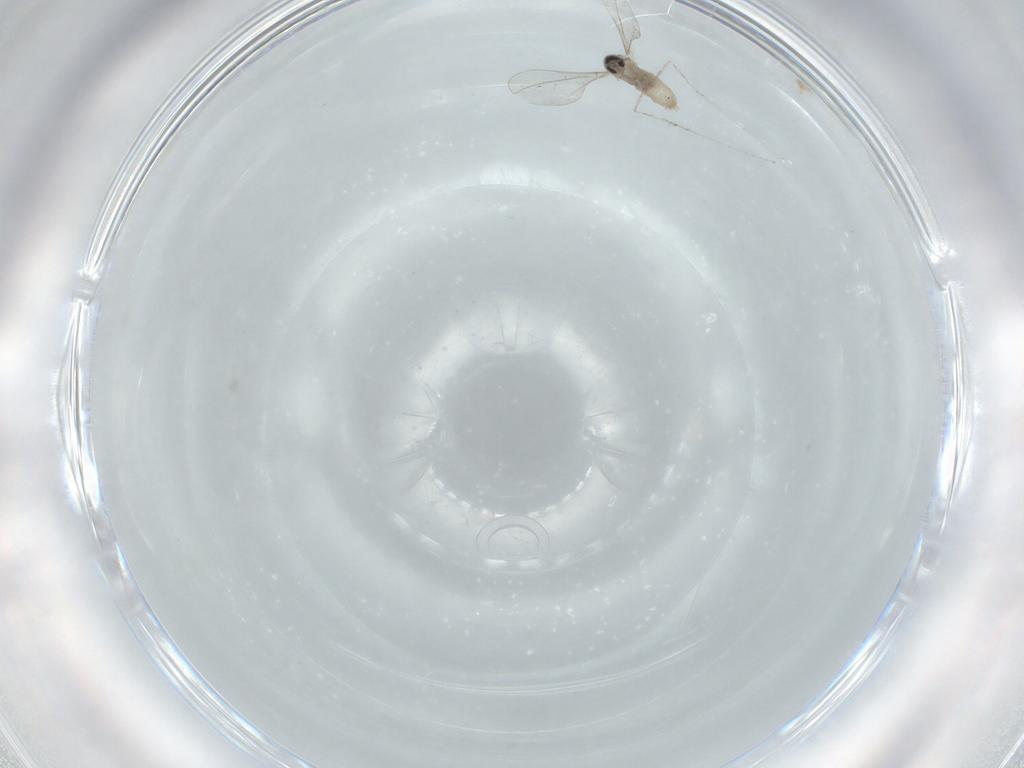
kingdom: Animalia
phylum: Arthropoda
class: Insecta
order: Diptera
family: Cecidomyiidae
